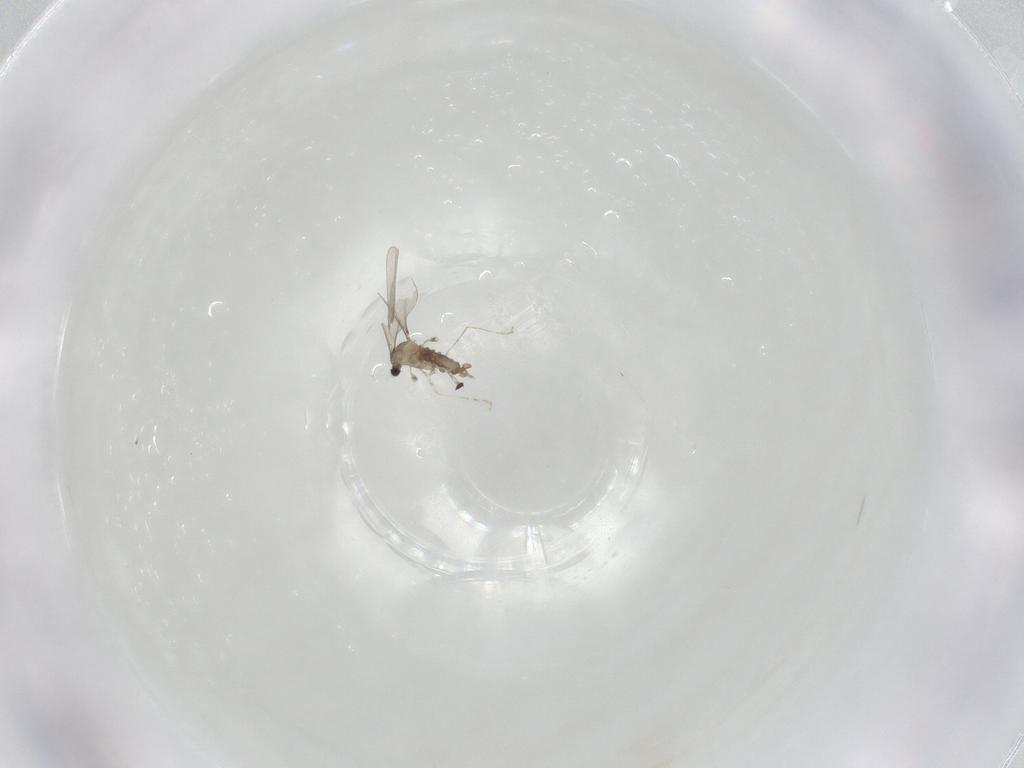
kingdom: Animalia
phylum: Arthropoda
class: Insecta
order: Diptera
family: Cecidomyiidae
